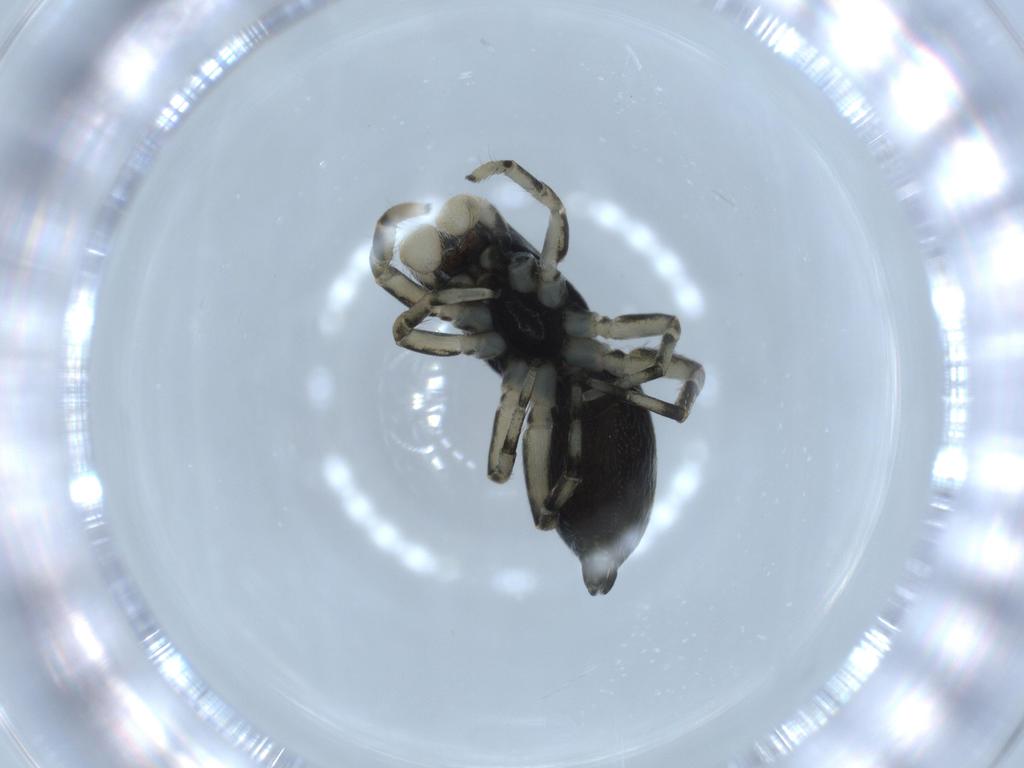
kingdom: Animalia
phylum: Arthropoda
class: Arachnida
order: Araneae
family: Salticidae
